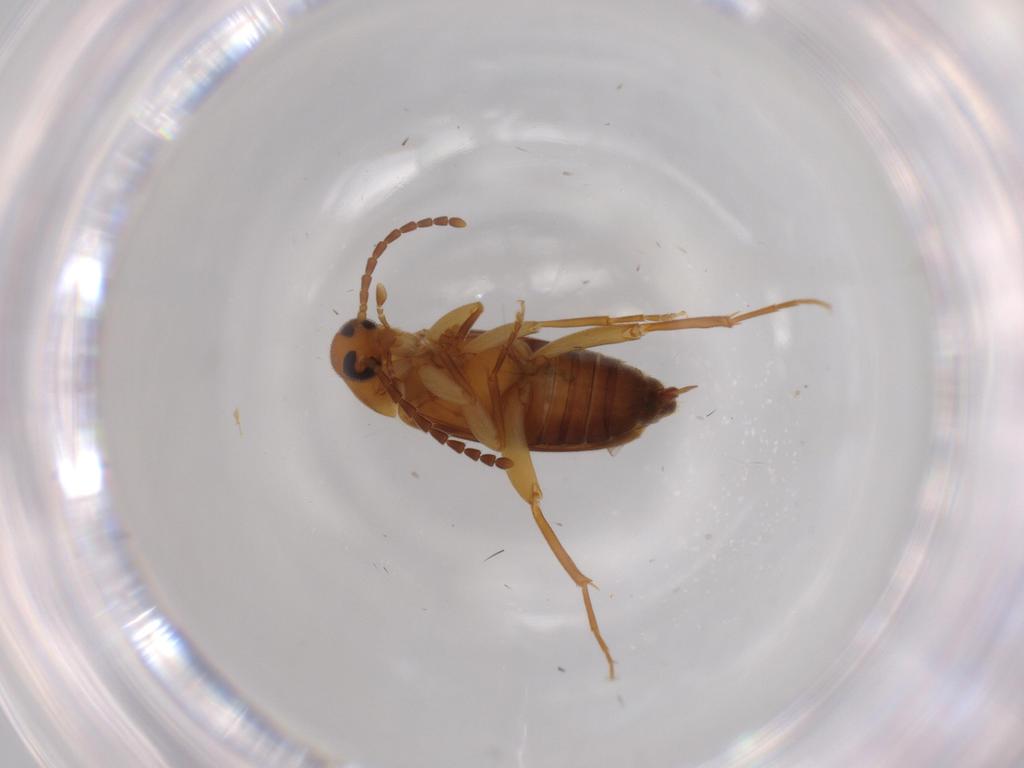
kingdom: Animalia
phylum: Arthropoda
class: Insecta
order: Coleoptera
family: Scraptiidae
